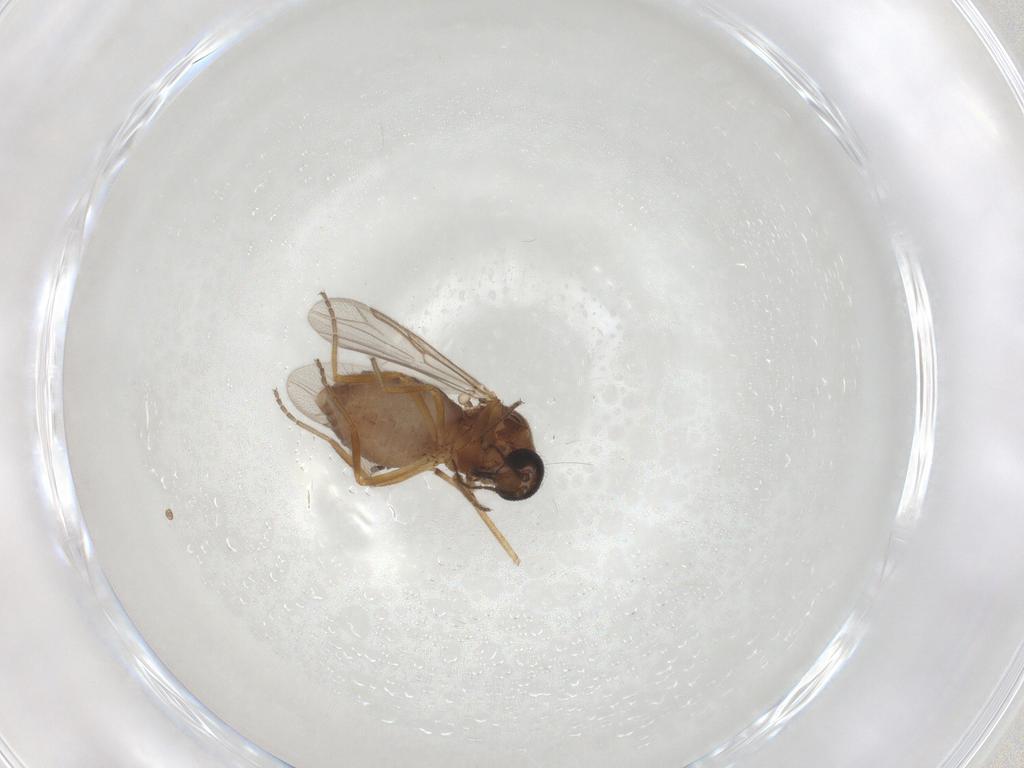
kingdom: Animalia
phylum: Arthropoda
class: Insecta
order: Diptera
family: Ceratopogonidae
